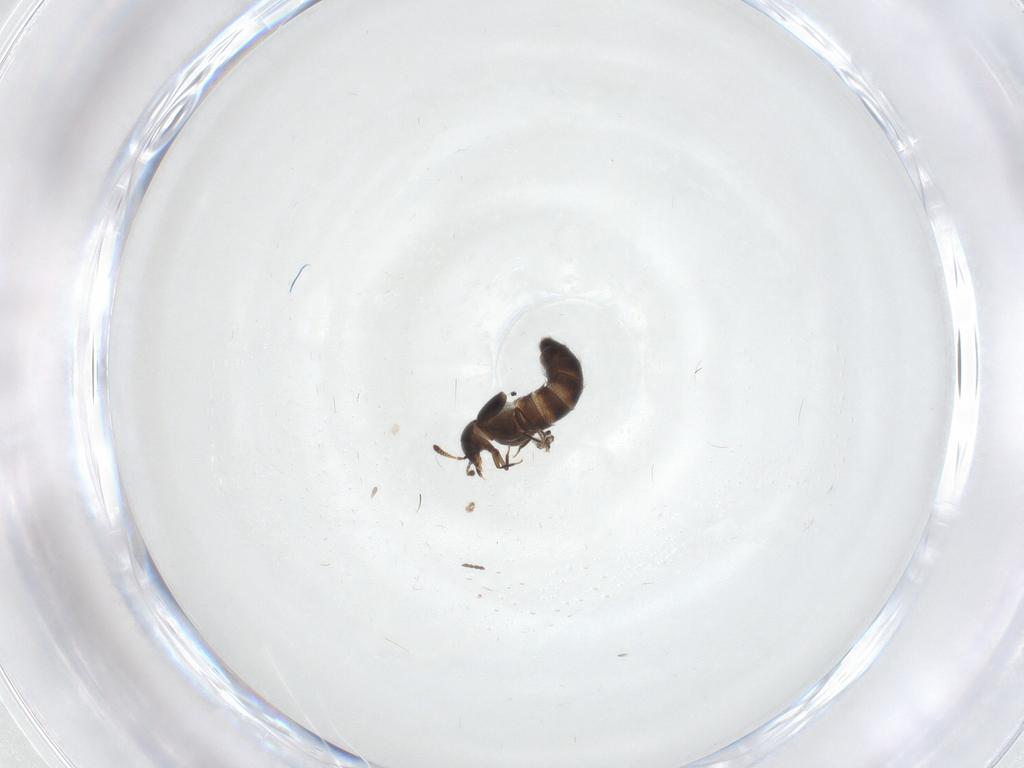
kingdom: Animalia
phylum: Arthropoda
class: Insecta
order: Coleoptera
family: Staphylinidae
